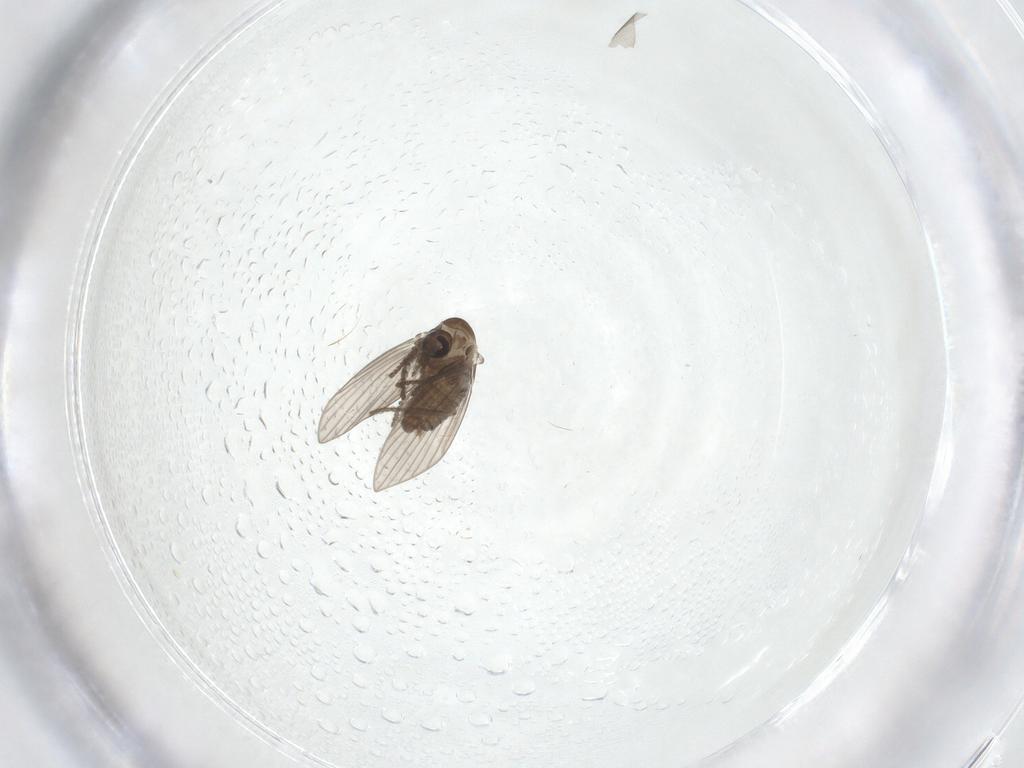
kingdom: Animalia
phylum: Arthropoda
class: Insecta
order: Diptera
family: Psychodidae
